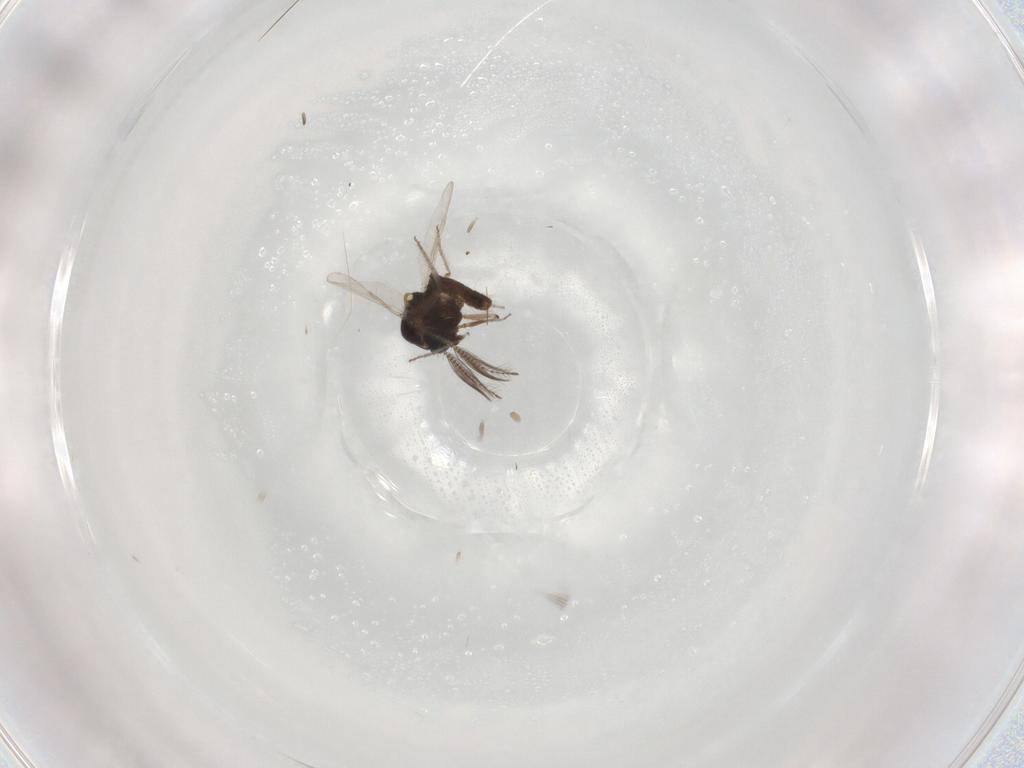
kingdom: Animalia
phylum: Arthropoda
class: Insecta
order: Diptera
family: Ceratopogonidae
